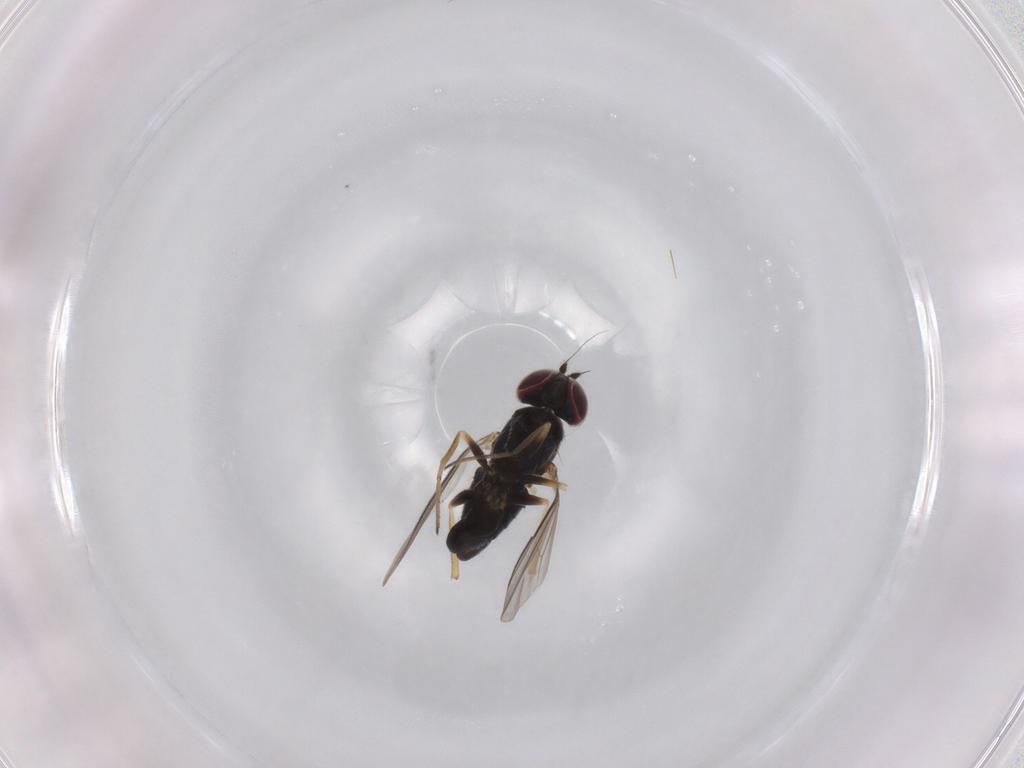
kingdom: Animalia
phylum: Arthropoda
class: Insecta
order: Diptera
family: Dolichopodidae
